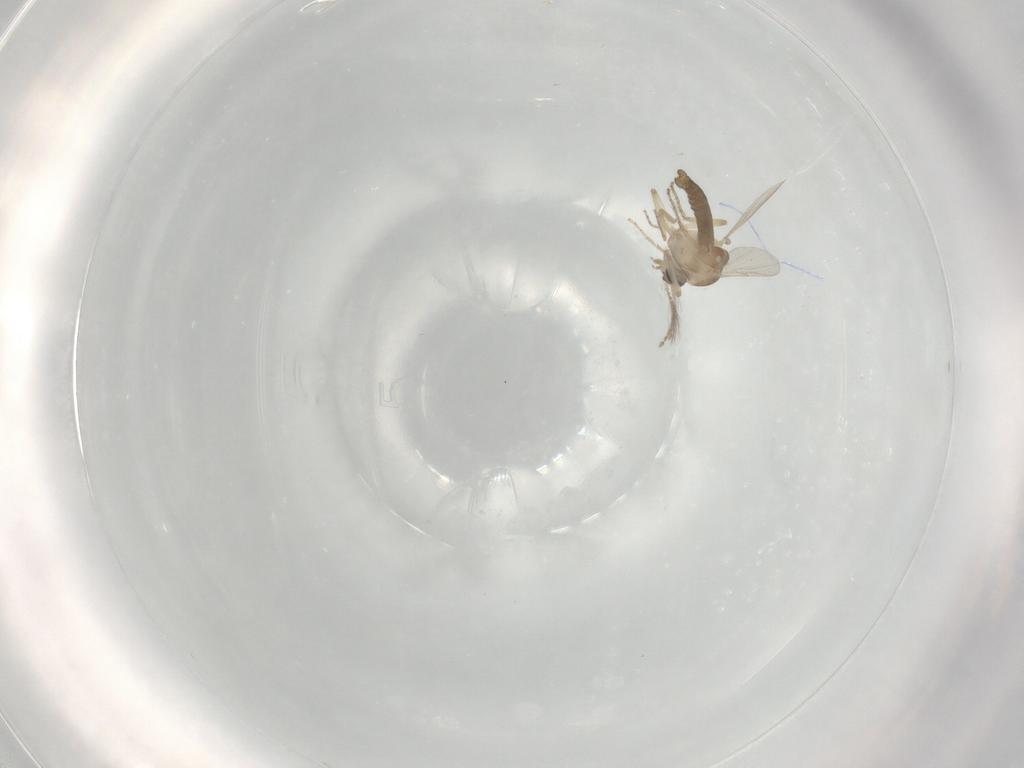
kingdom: Animalia
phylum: Arthropoda
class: Insecta
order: Diptera
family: Ceratopogonidae
